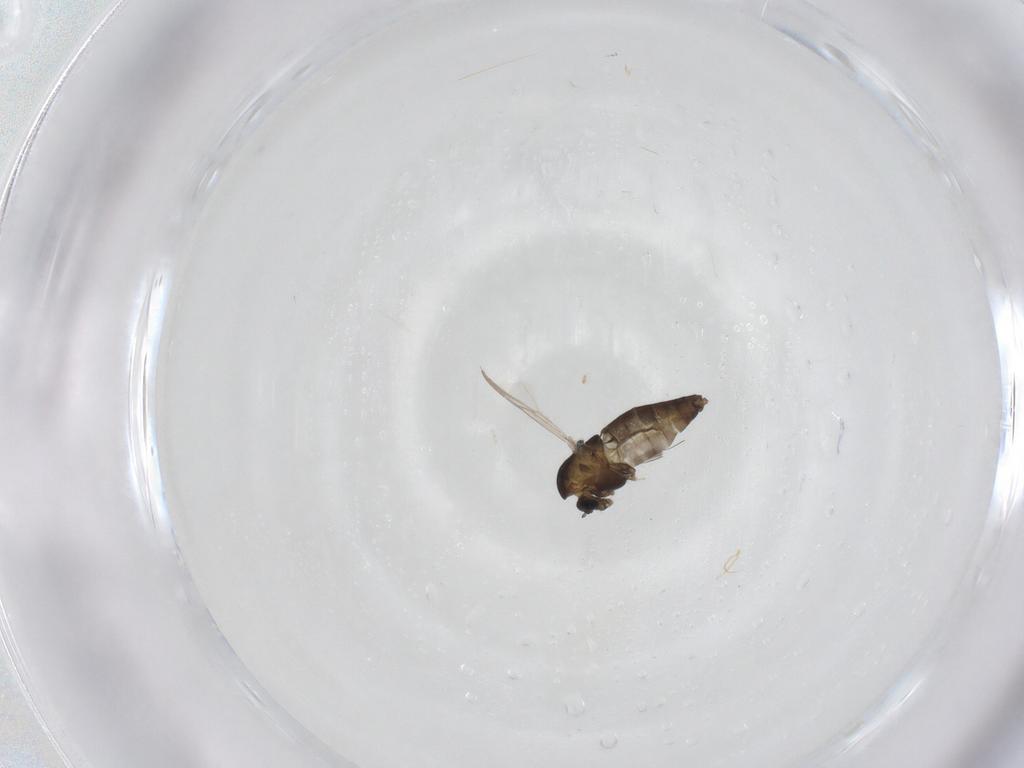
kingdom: Animalia
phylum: Arthropoda
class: Insecta
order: Diptera
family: Chironomidae
